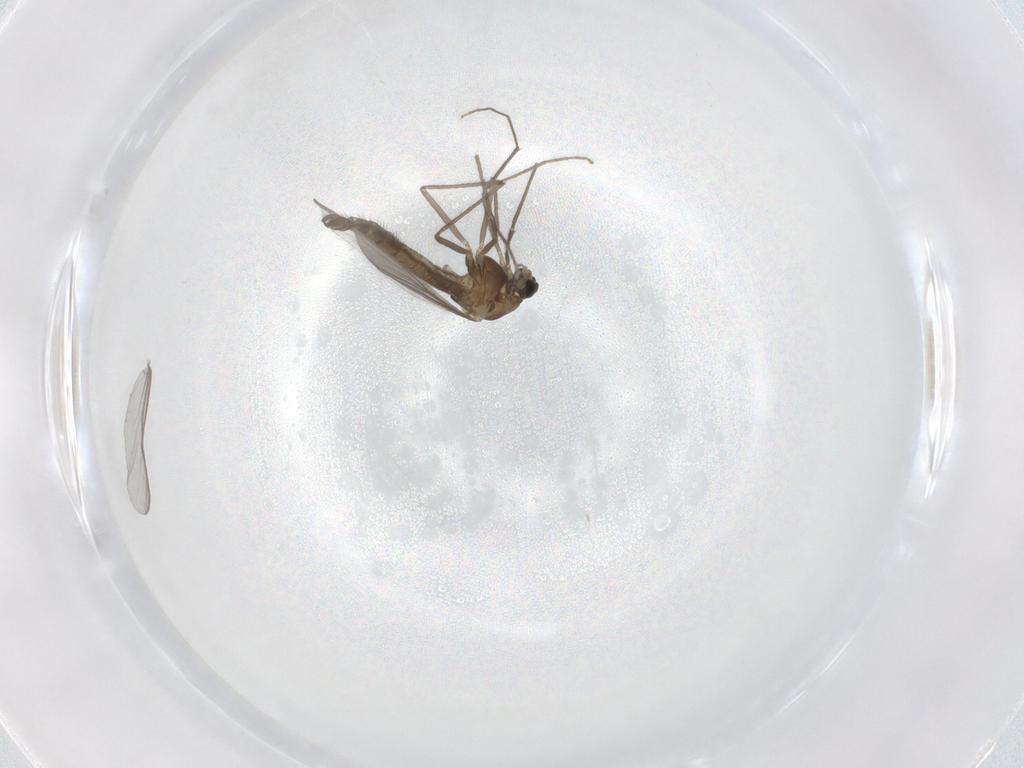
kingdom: Animalia
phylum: Arthropoda
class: Insecta
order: Diptera
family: Chironomidae
